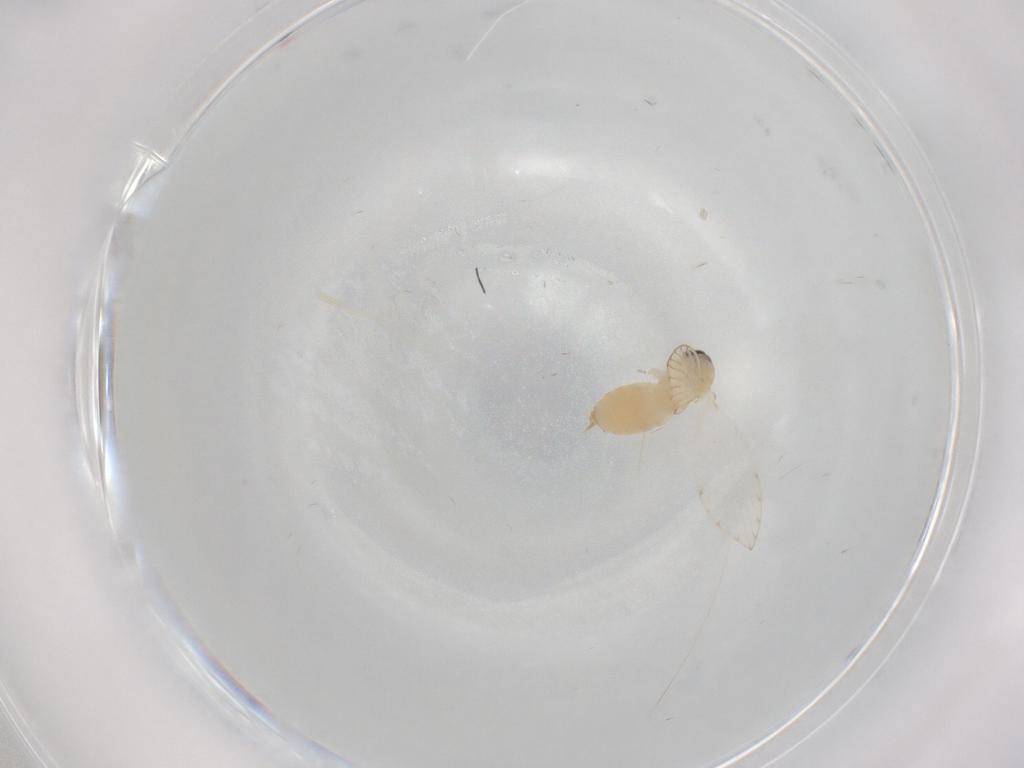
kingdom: Animalia
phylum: Arthropoda
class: Insecta
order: Diptera
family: Psychodidae
